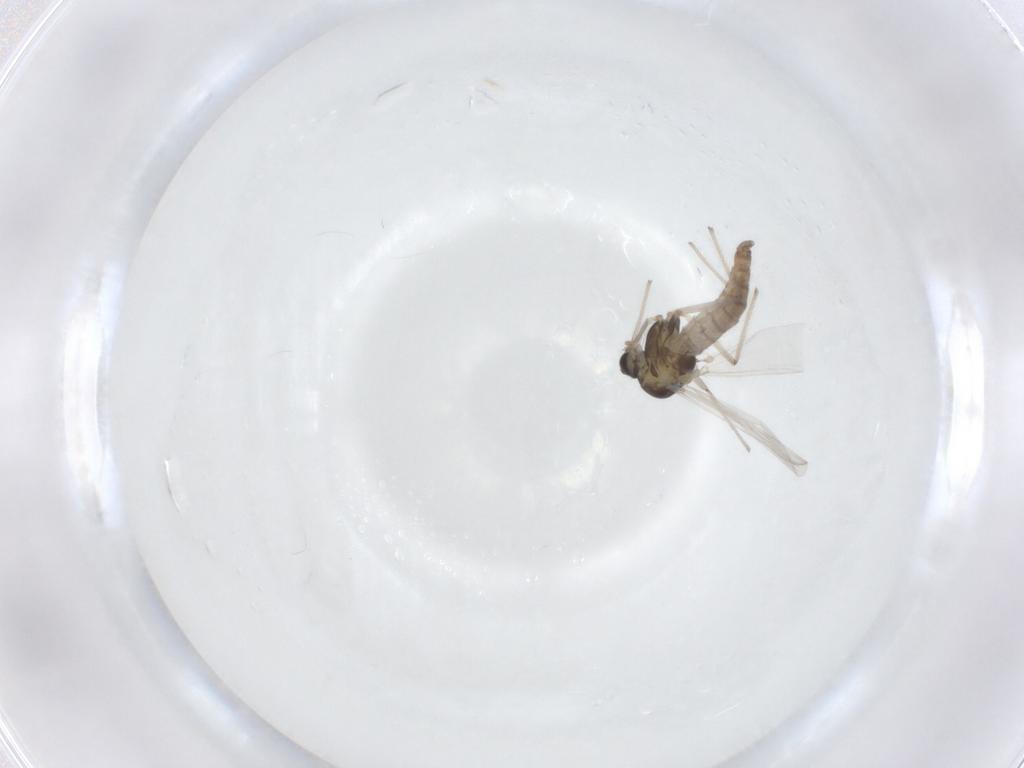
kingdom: Animalia
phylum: Arthropoda
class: Insecta
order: Diptera
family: Chironomidae
